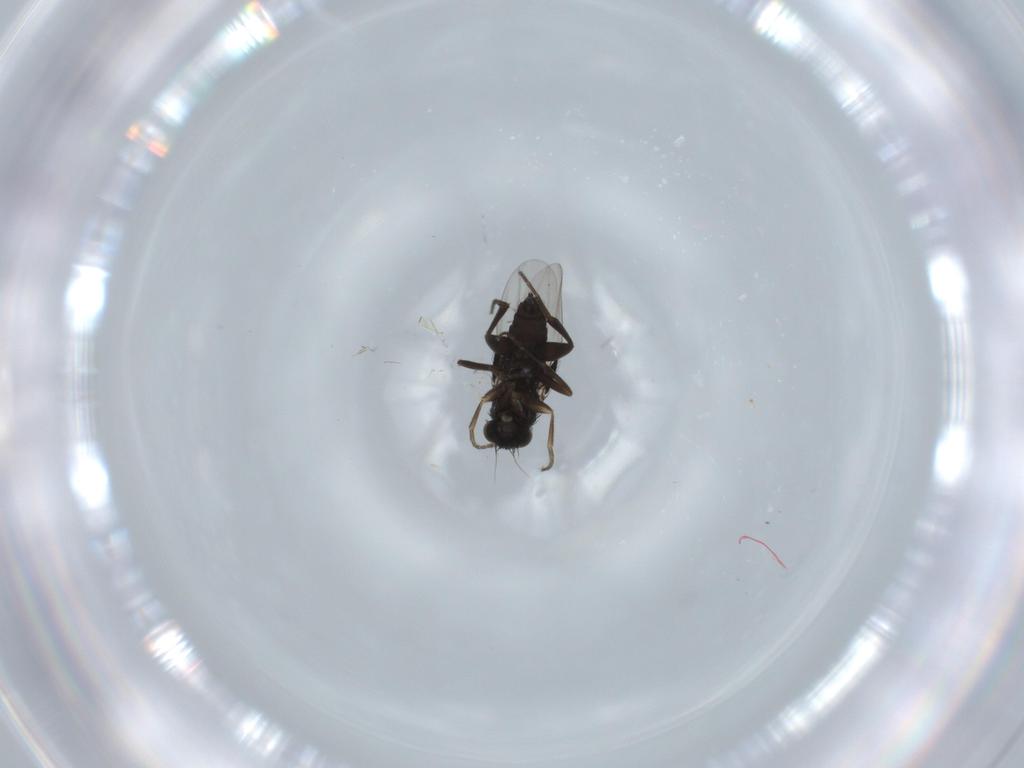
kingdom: Animalia
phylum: Arthropoda
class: Insecta
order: Diptera
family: Phoridae
